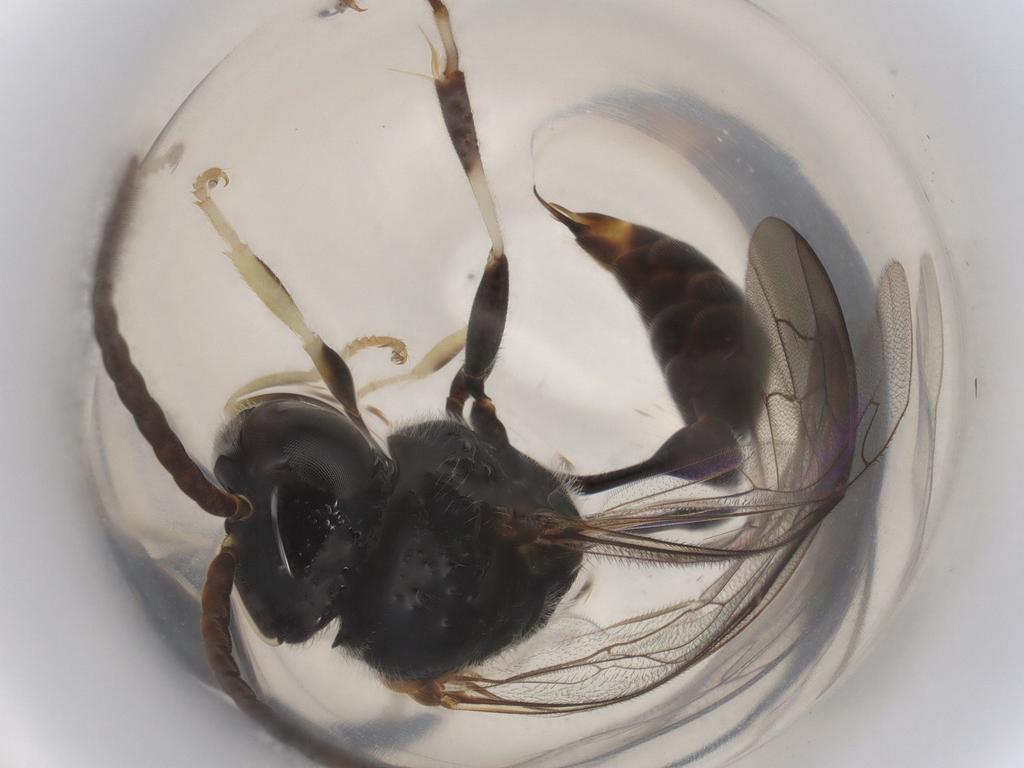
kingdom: Animalia
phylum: Arthropoda
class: Insecta
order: Hymenoptera
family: Psenidae
